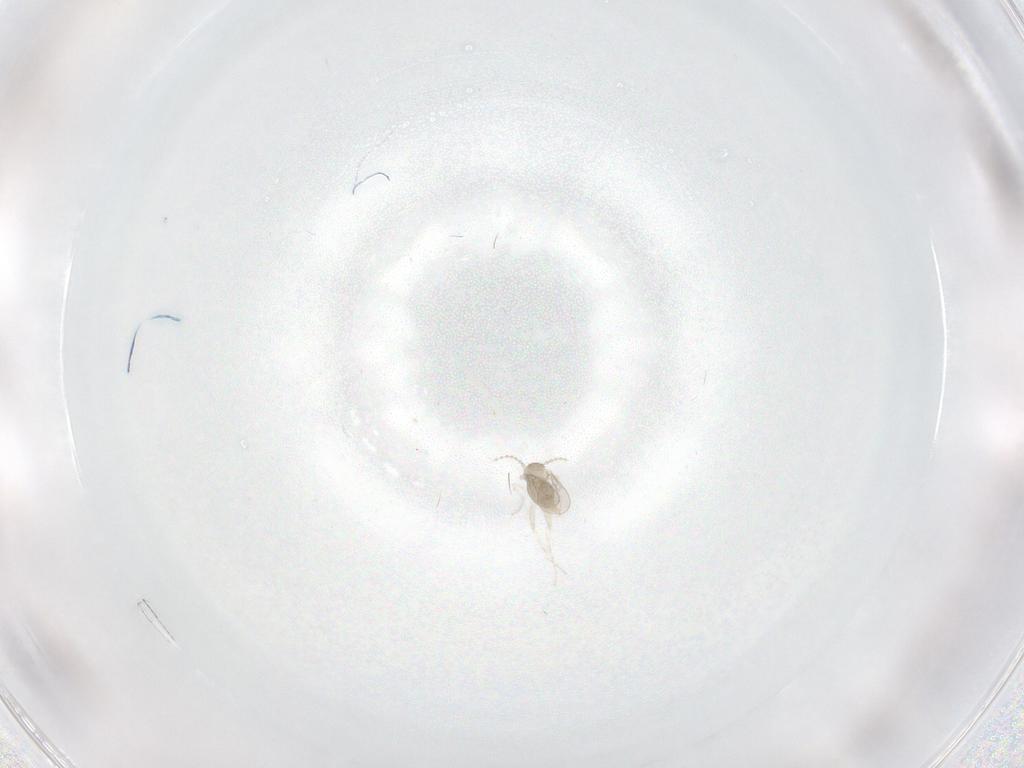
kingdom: Animalia
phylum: Arthropoda
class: Insecta
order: Diptera
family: Cecidomyiidae
